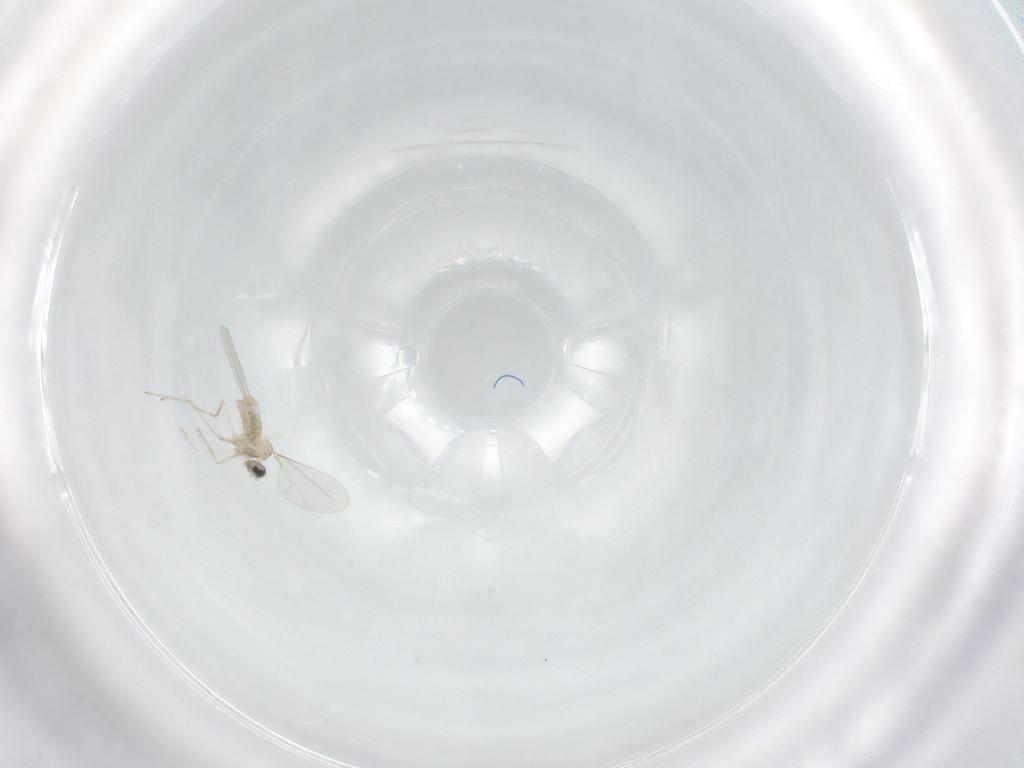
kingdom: Animalia
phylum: Arthropoda
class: Insecta
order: Diptera
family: Cecidomyiidae
